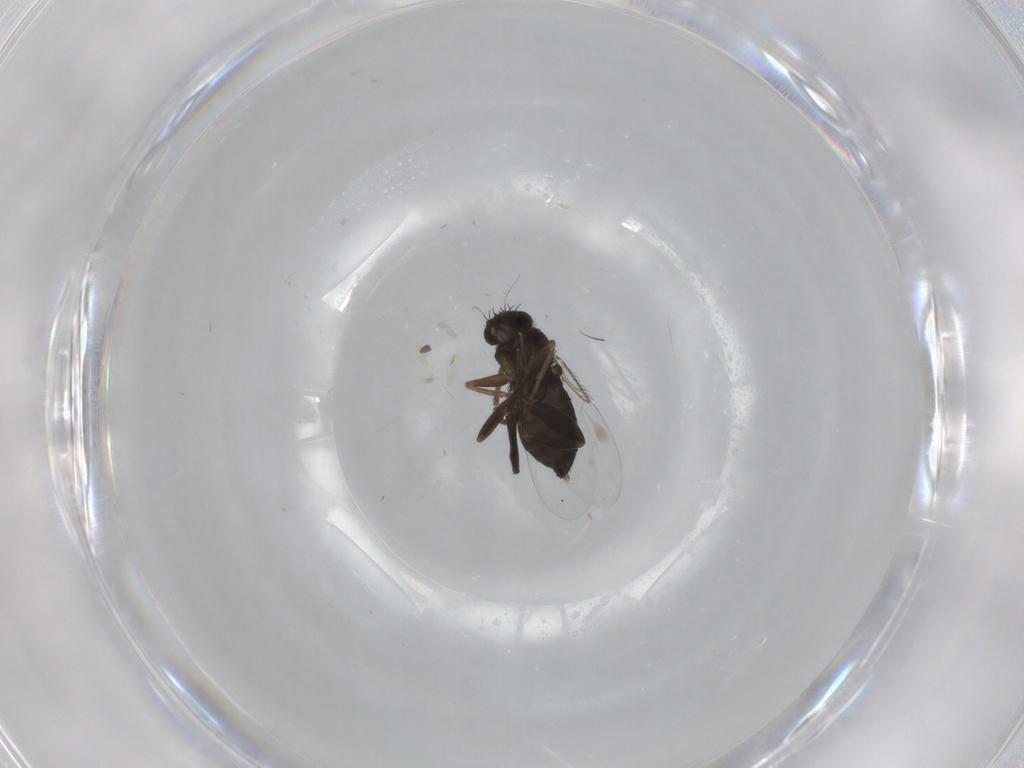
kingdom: Animalia
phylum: Arthropoda
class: Insecta
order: Diptera
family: Phoridae
